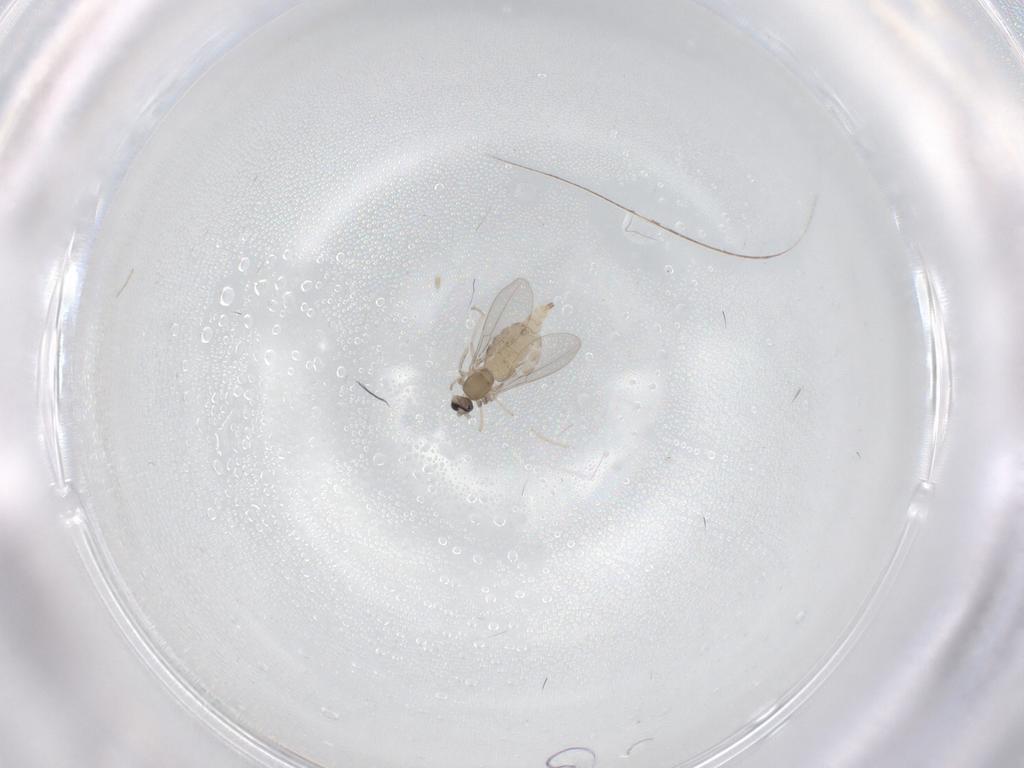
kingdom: Animalia
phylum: Arthropoda
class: Insecta
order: Diptera
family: Cecidomyiidae
